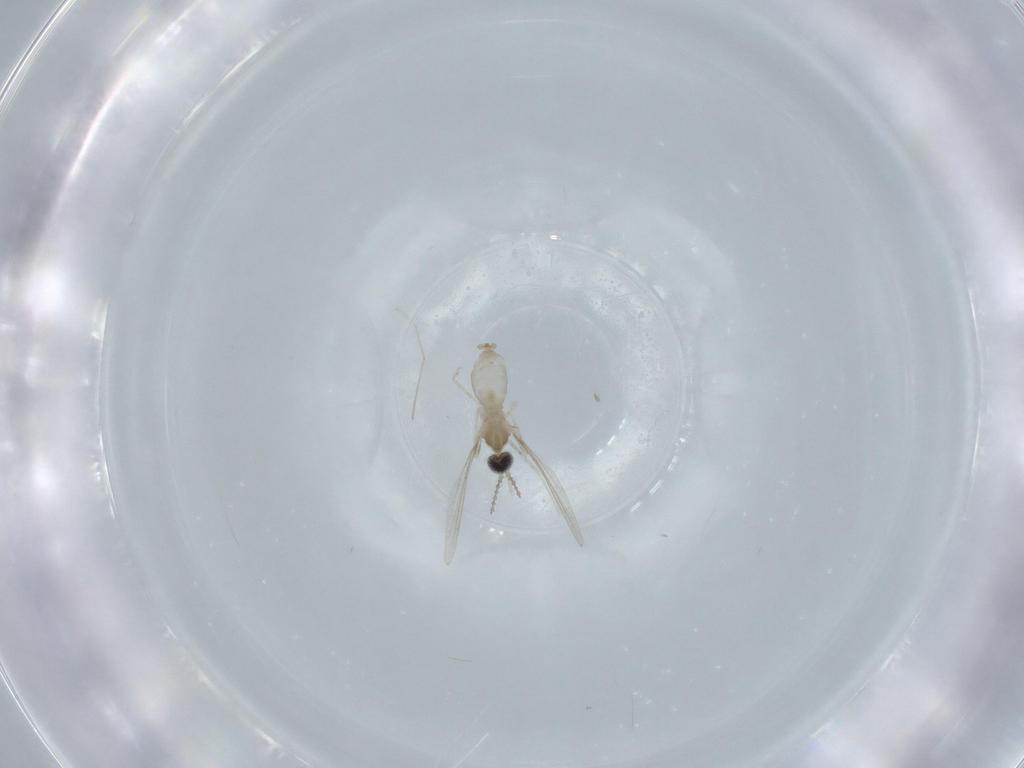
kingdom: Animalia
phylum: Arthropoda
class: Insecta
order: Diptera
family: Cecidomyiidae
